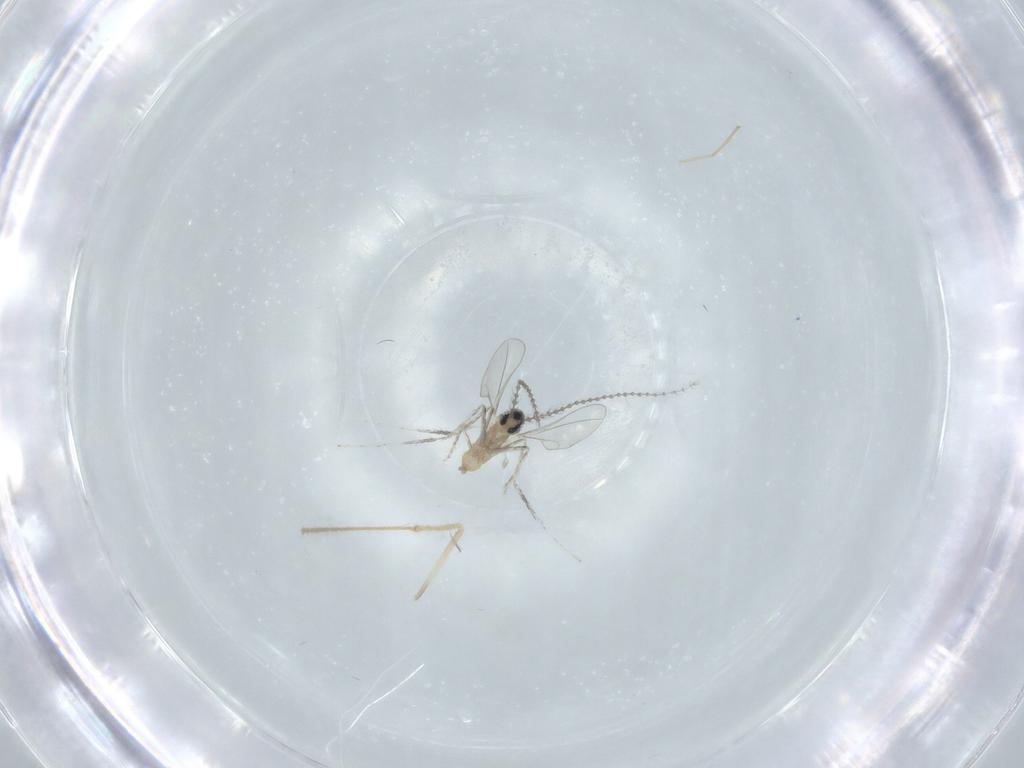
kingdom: Animalia
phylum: Arthropoda
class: Insecta
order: Diptera
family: Chironomidae
